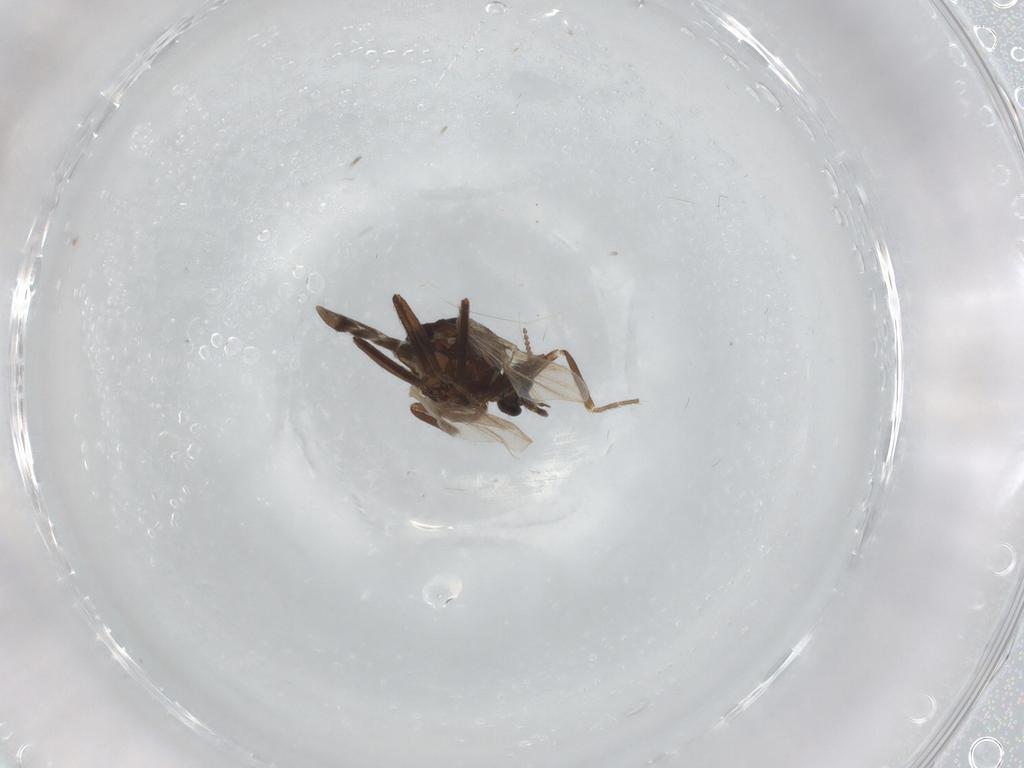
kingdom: Animalia
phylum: Arthropoda
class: Insecta
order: Diptera
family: Ceratopogonidae
